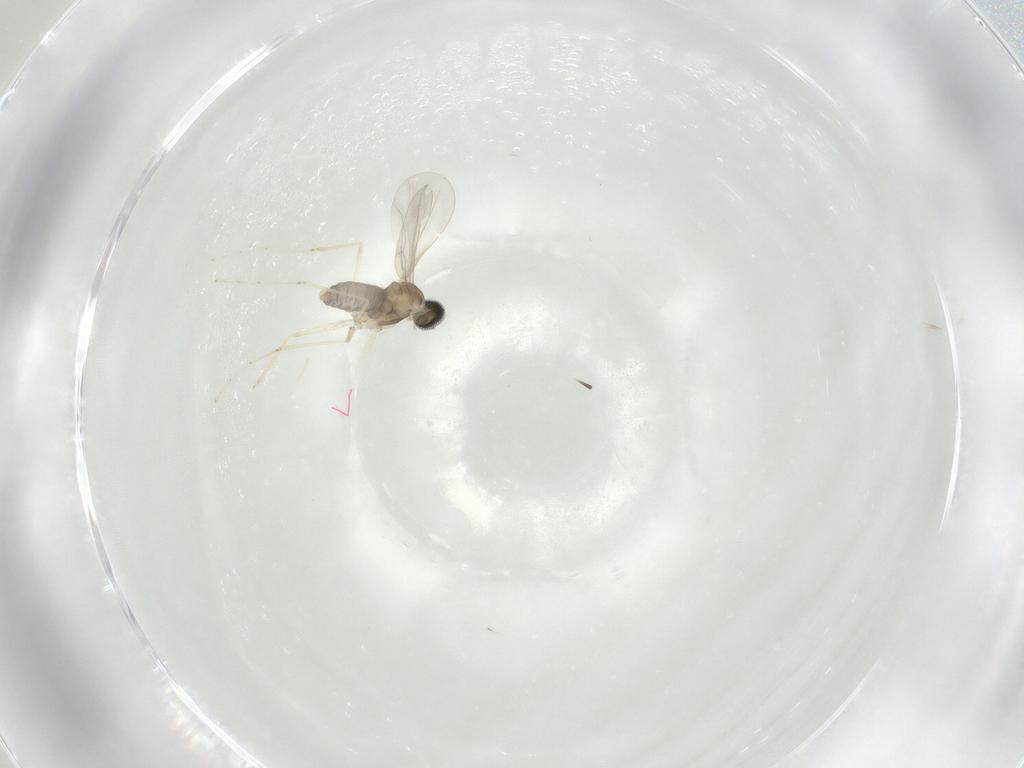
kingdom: Animalia
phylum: Arthropoda
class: Insecta
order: Diptera
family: Cecidomyiidae
